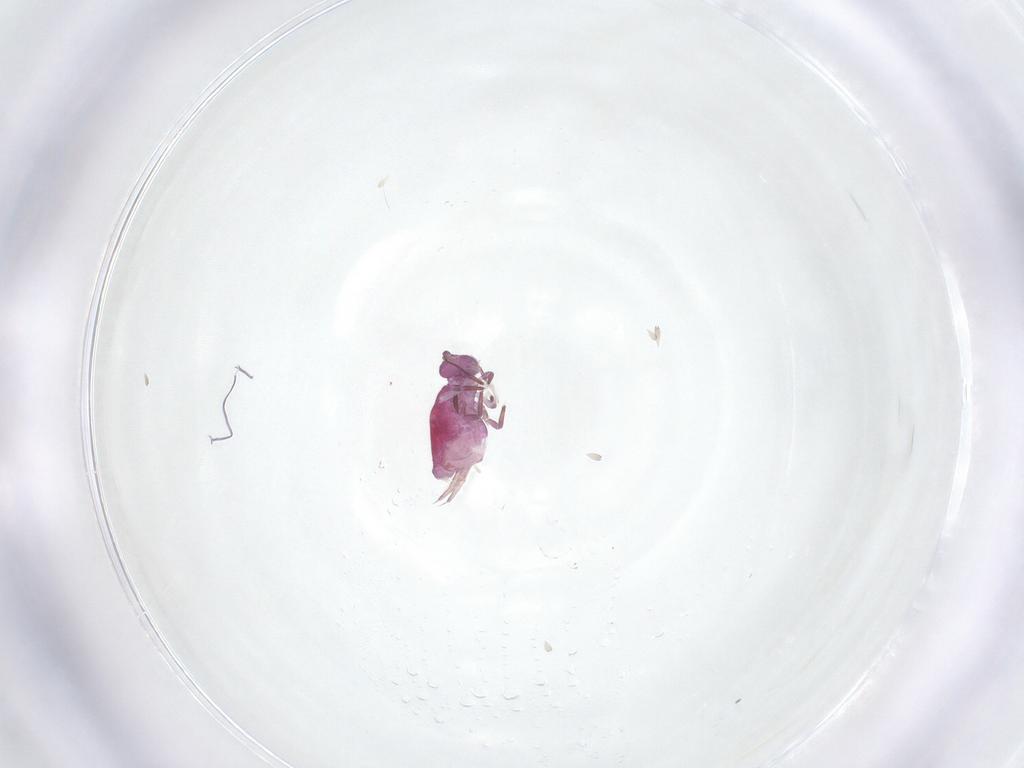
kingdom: Animalia
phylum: Arthropoda
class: Collembola
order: Symphypleona
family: Sminthuridae
